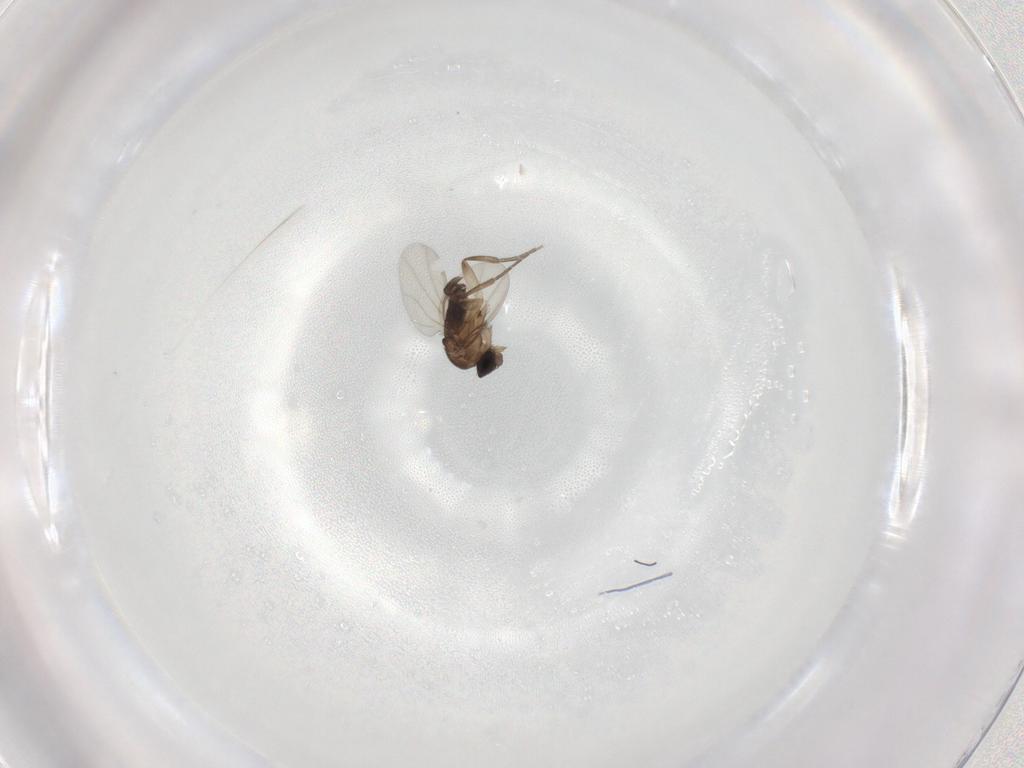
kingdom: Animalia
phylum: Arthropoda
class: Insecta
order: Diptera
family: Phoridae
